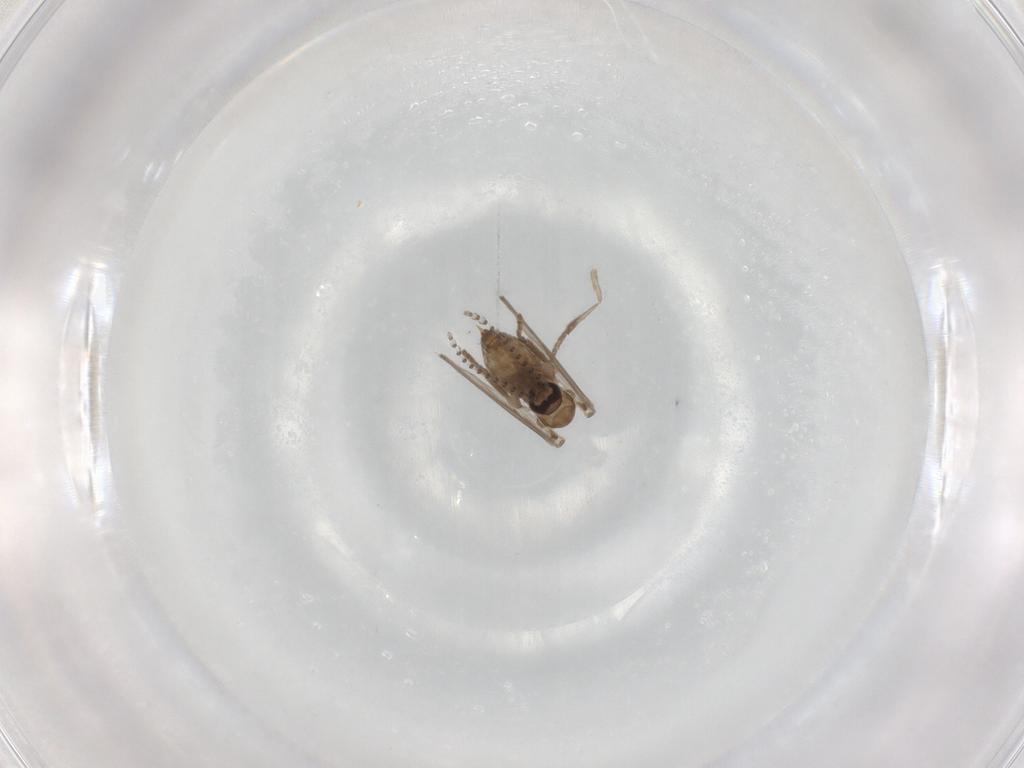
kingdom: Animalia
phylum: Arthropoda
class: Insecta
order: Diptera
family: Psychodidae
